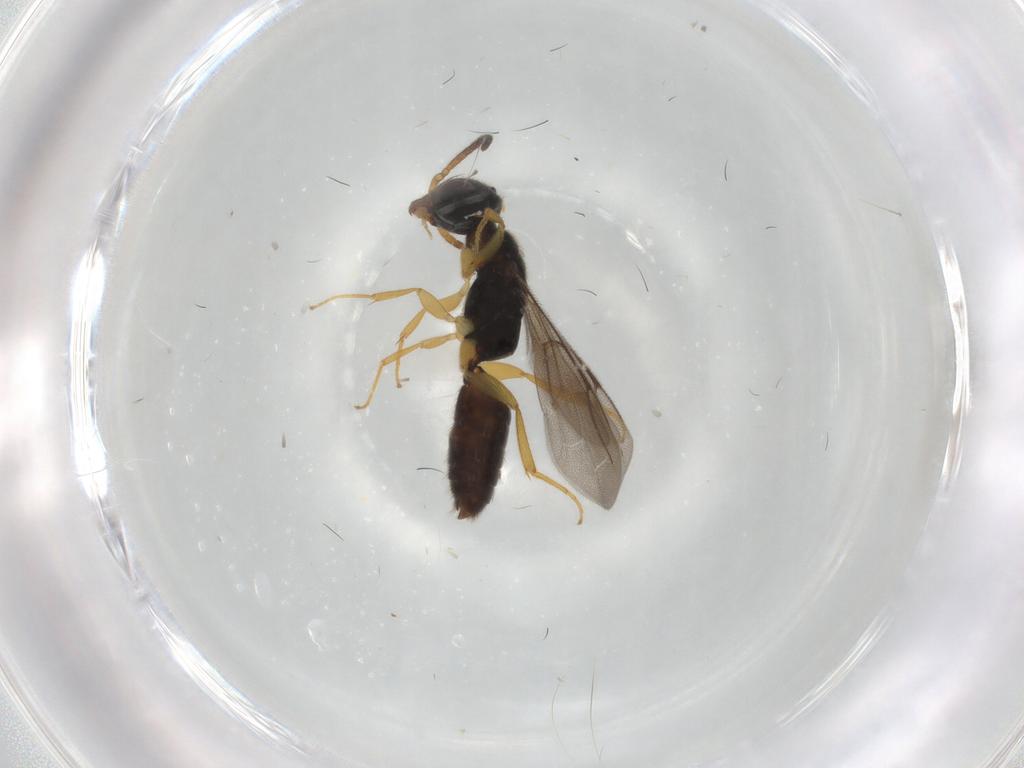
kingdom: Animalia
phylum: Arthropoda
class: Insecta
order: Hymenoptera
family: Bethylidae
